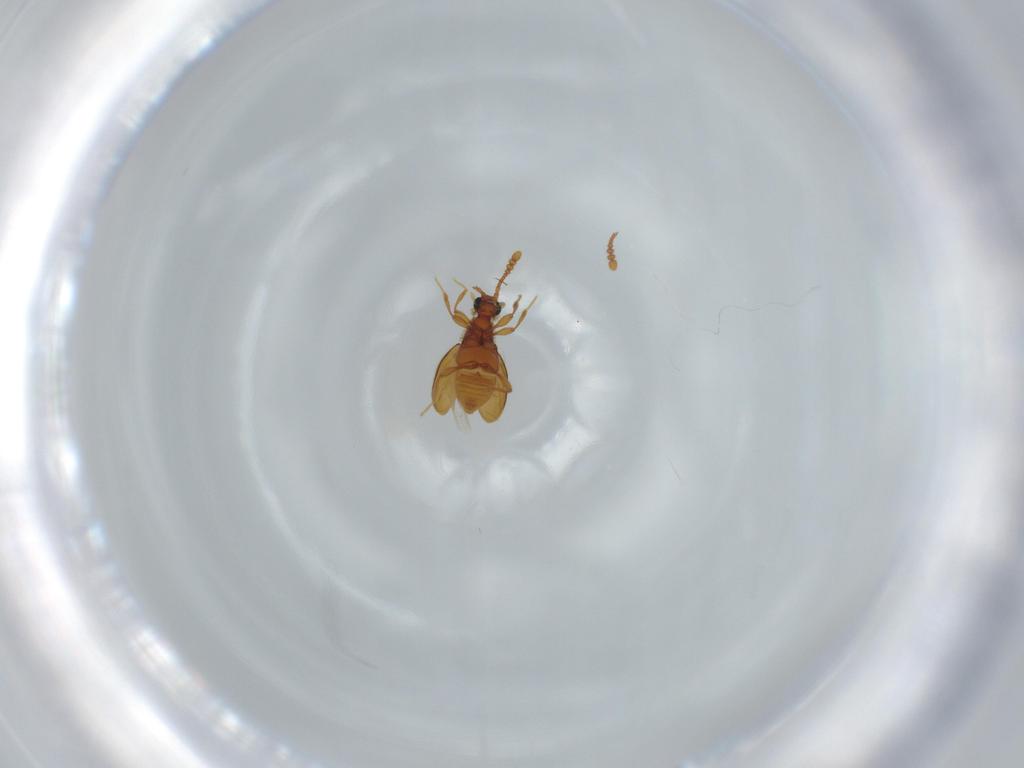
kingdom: Animalia
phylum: Arthropoda
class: Insecta
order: Coleoptera
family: Staphylinidae
